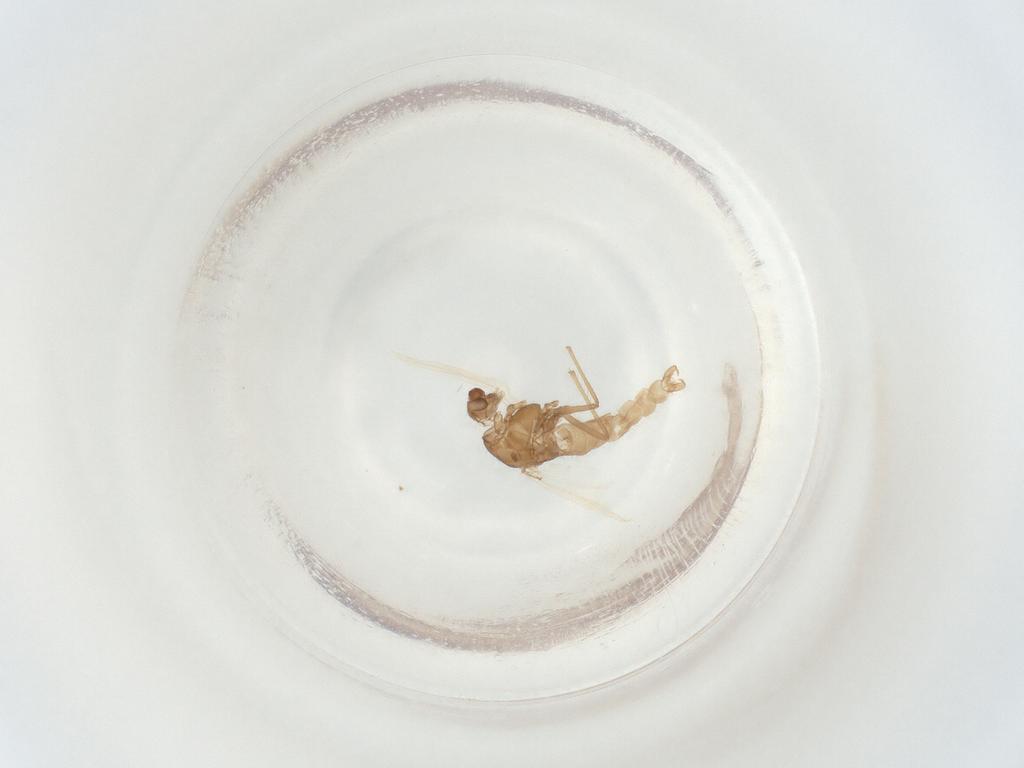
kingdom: Animalia
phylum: Arthropoda
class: Insecta
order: Diptera
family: Chironomidae
